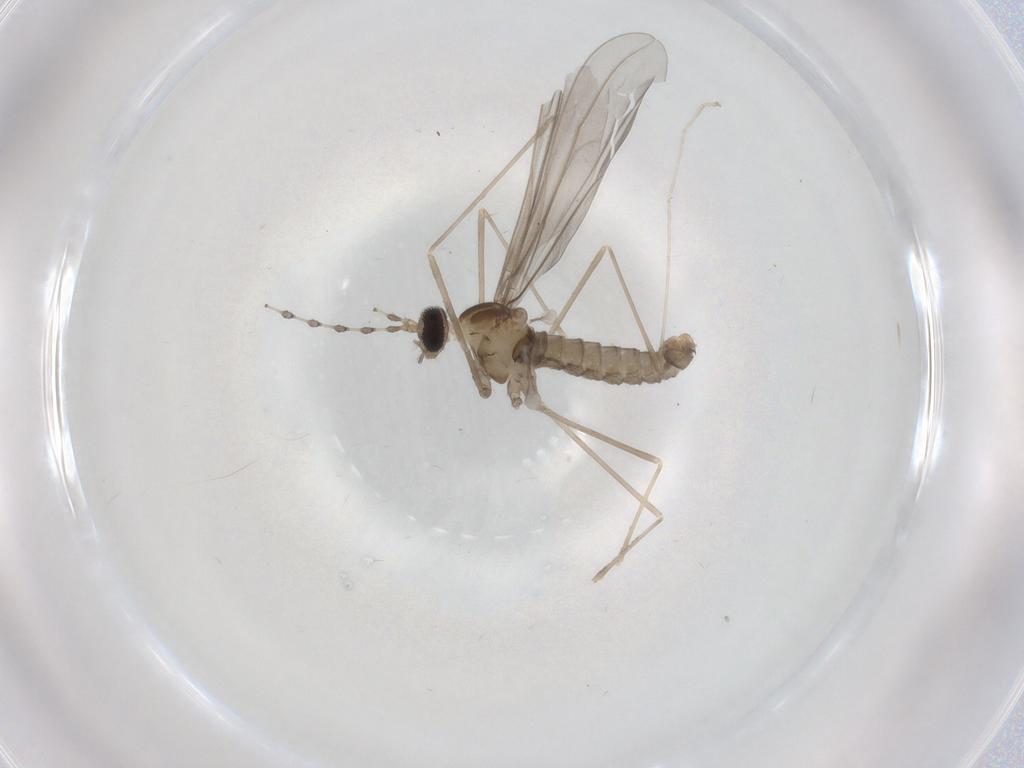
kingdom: Animalia
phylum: Arthropoda
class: Insecta
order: Diptera
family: Cecidomyiidae
